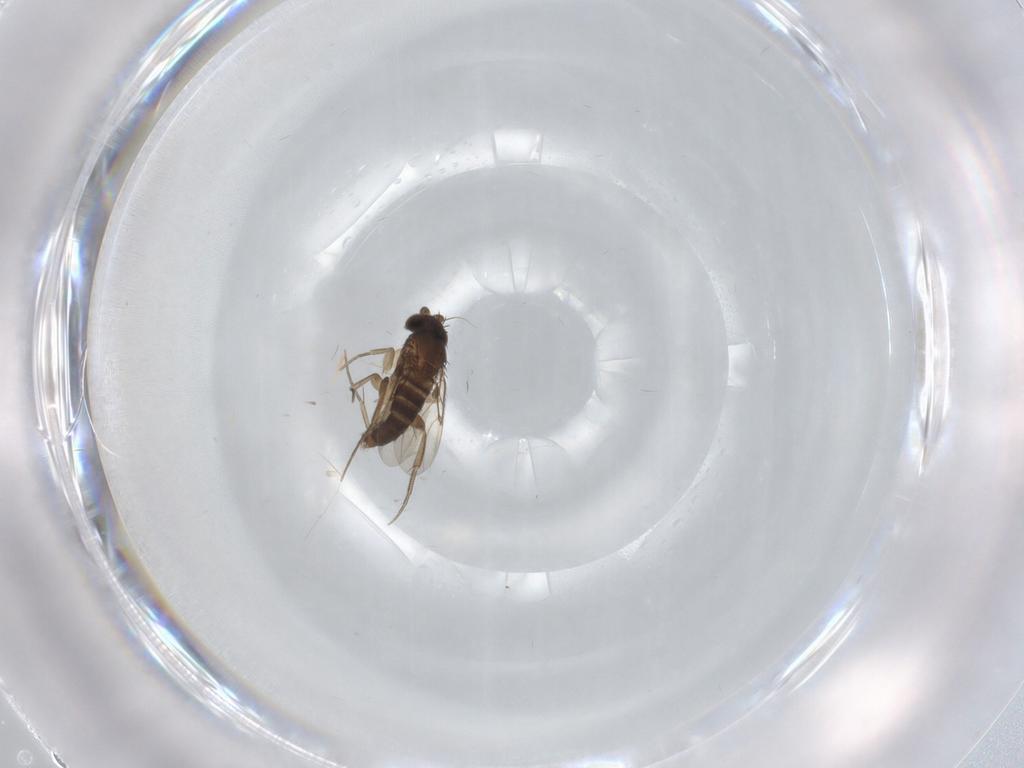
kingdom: Animalia
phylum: Arthropoda
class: Insecta
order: Diptera
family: Phoridae
